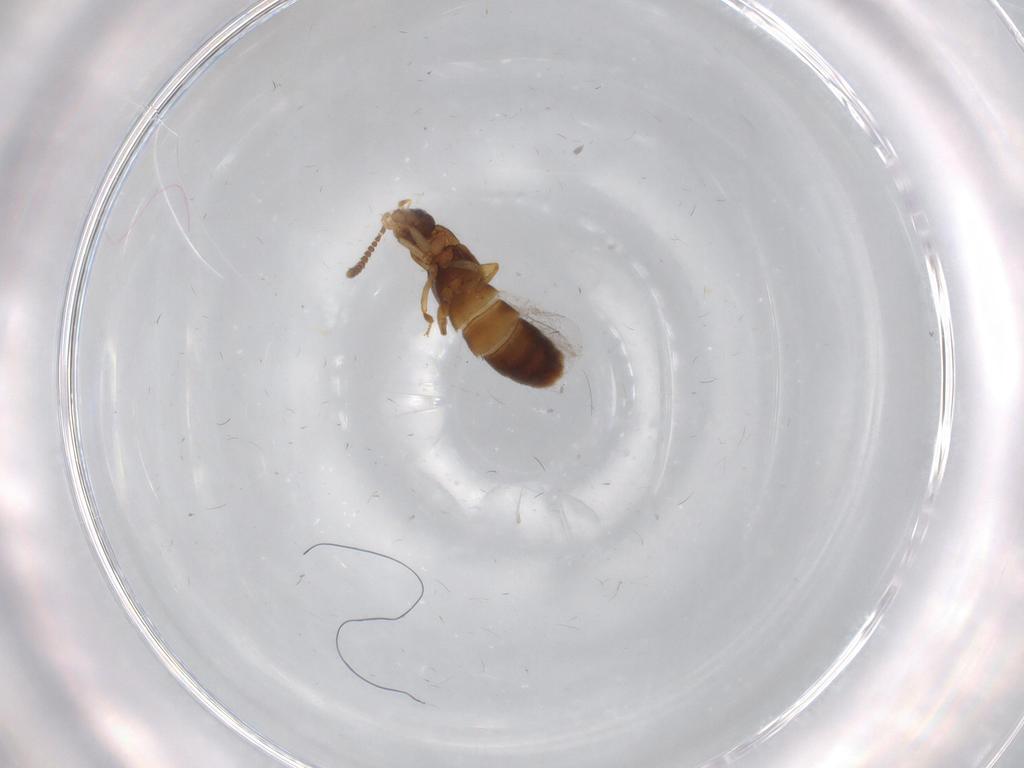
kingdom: Animalia
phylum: Arthropoda
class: Insecta
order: Coleoptera
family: Staphylinidae
